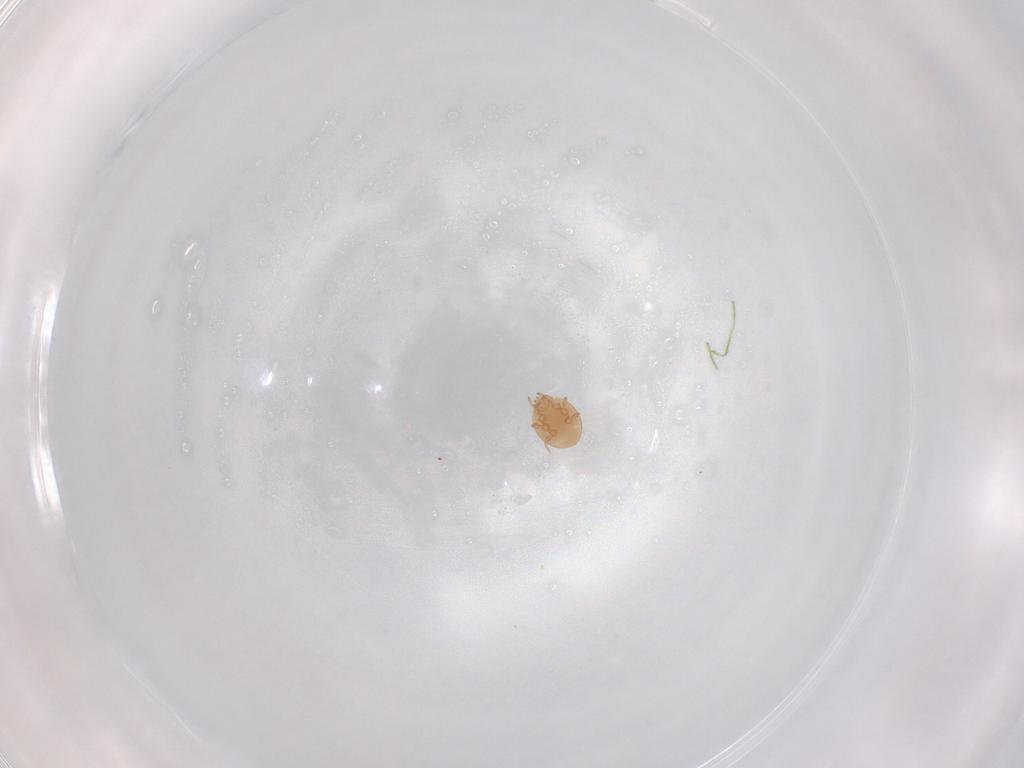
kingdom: Animalia
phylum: Arthropoda
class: Arachnida
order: Mesostigmata
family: Trematuridae
